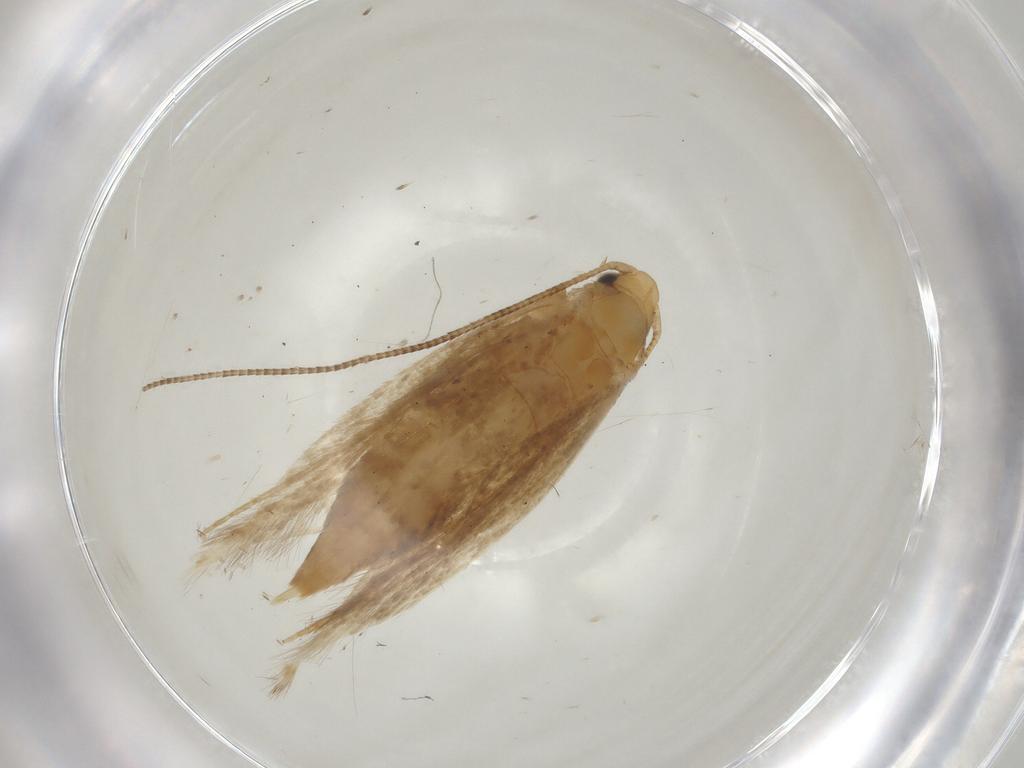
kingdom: Animalia
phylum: Arthropoda
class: Insecta
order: Lepidoptera
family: Tineidae
